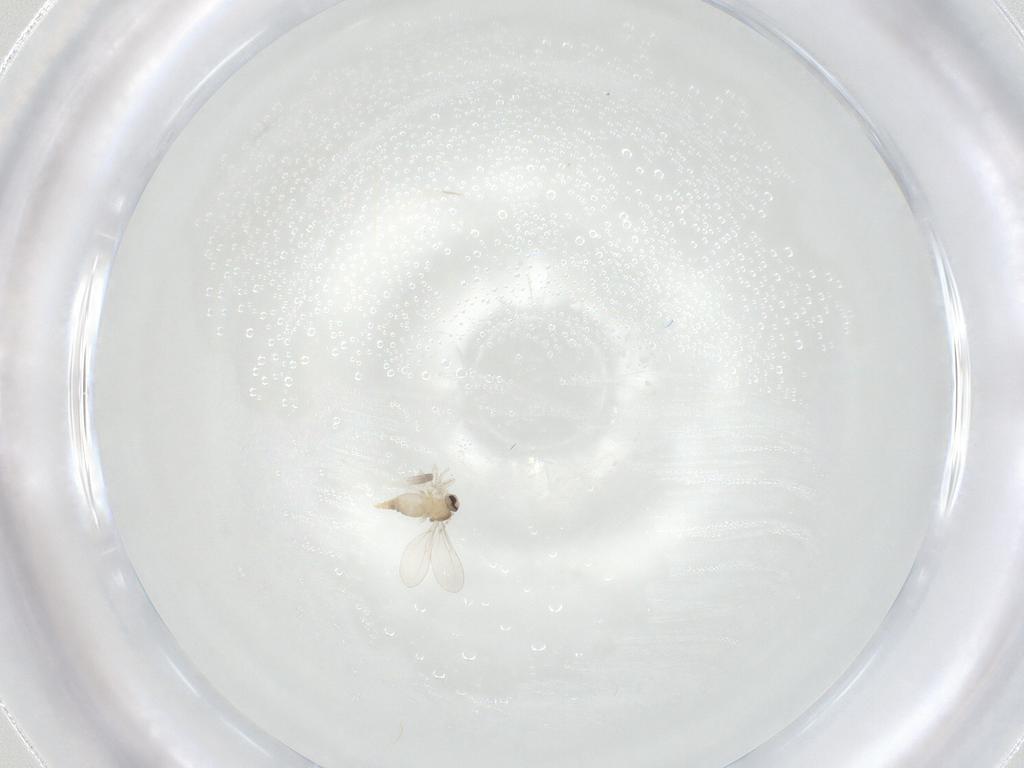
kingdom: Animalia
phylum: Arthropoda
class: Insecta
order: Diptera
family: Cecidomyiidae
